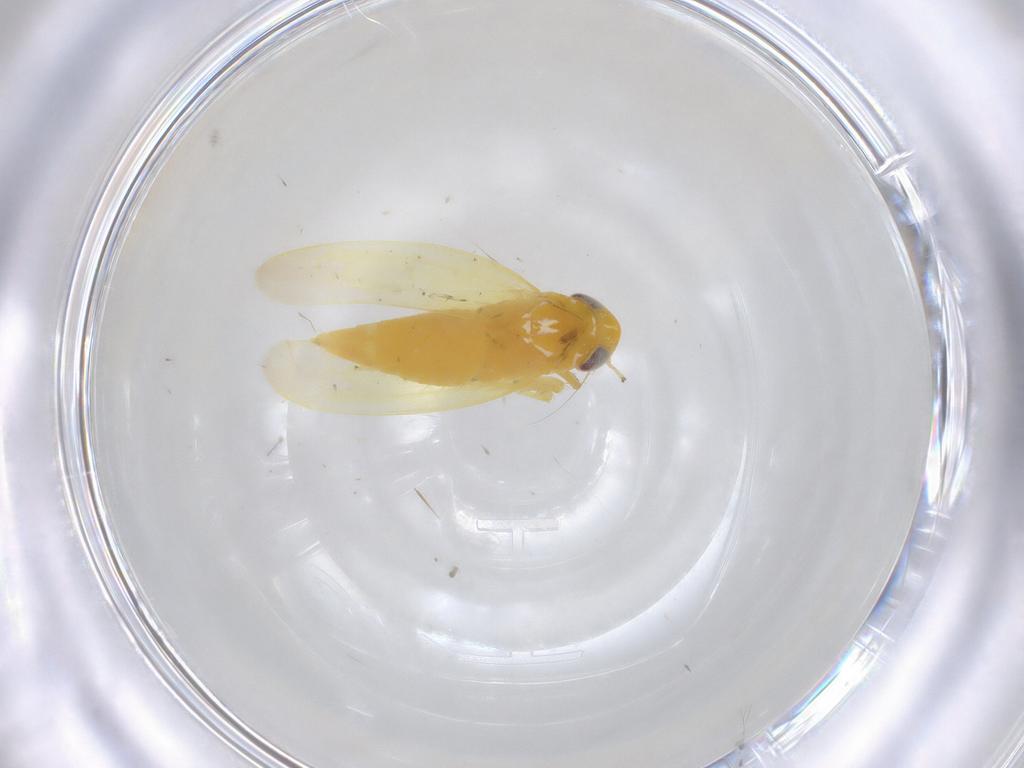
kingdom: Animalia
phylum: Arthropoda
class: Insecta
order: Hemiptera
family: Cicadellidae
